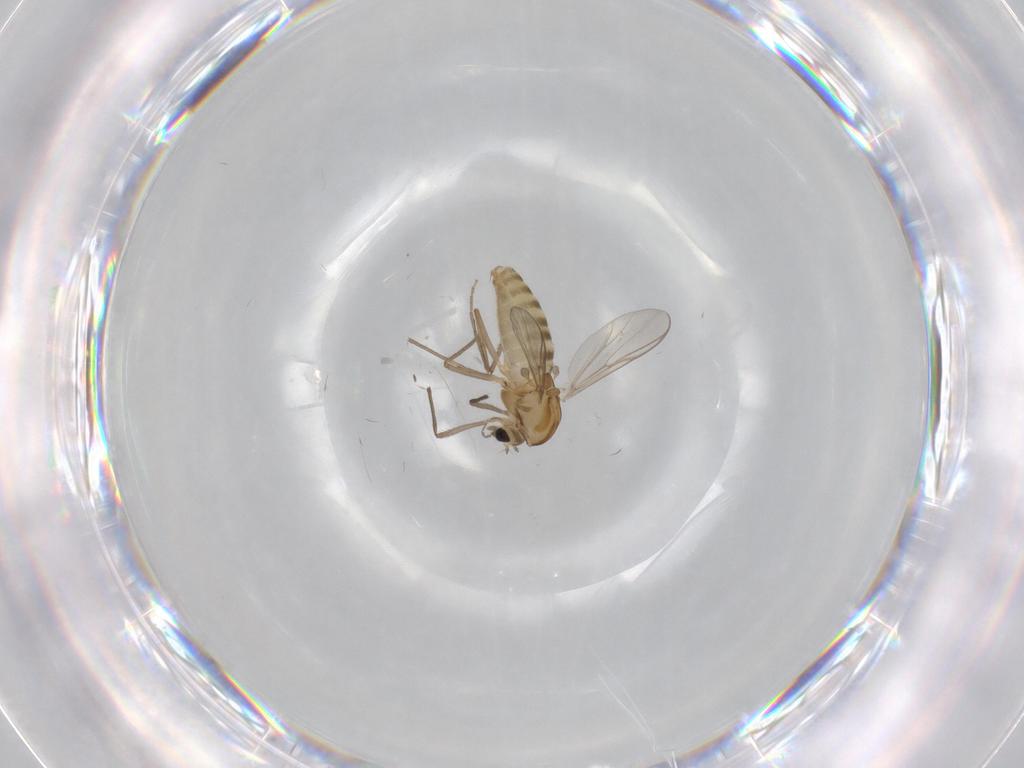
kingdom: Animalia
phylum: Arthropoda
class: Insecta
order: Diptera
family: Chironomidae
